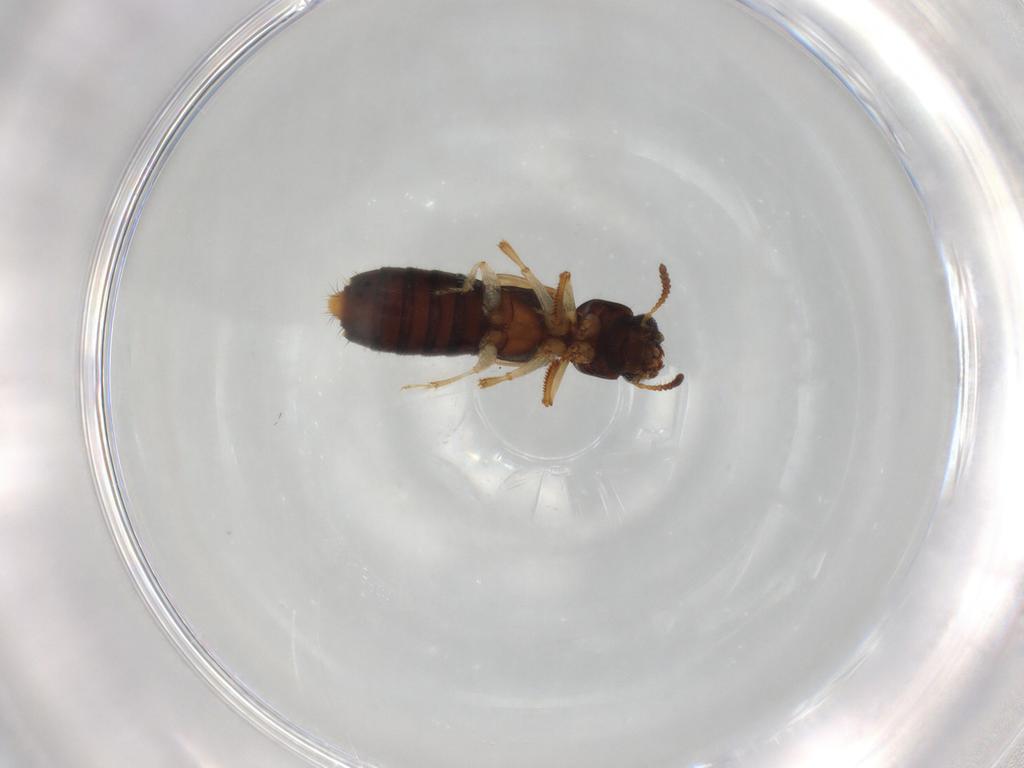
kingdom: Animalia
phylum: Arthropoda
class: Insecta
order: Coleoptera
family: Staphylinidae
